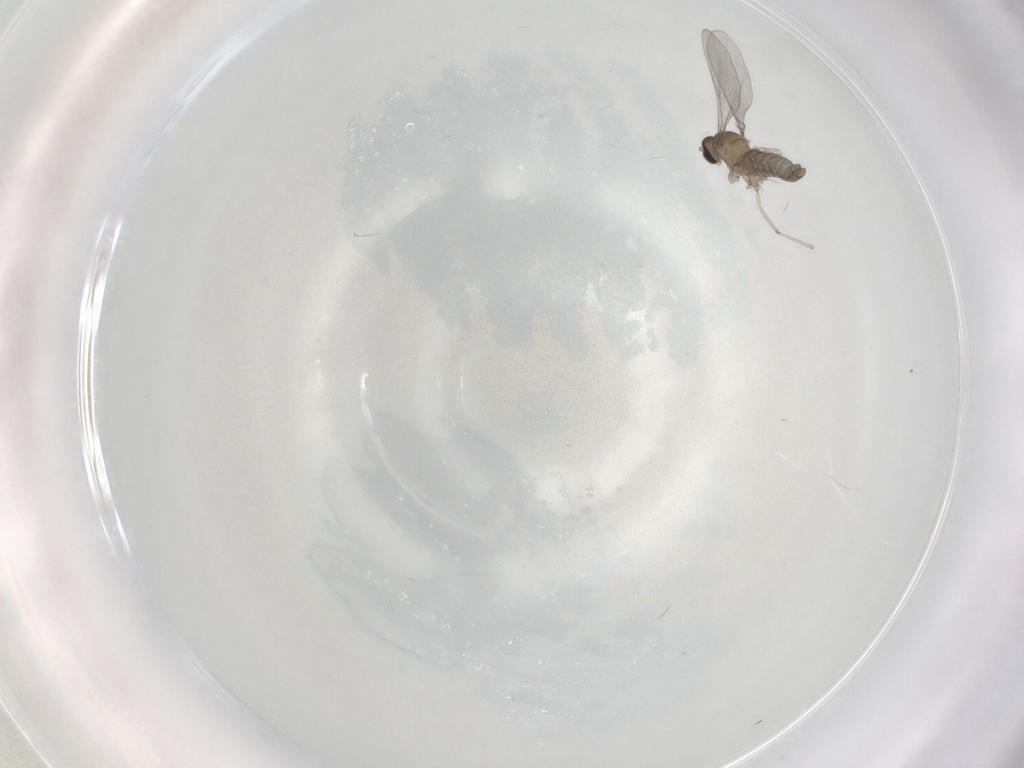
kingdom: Animalia
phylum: Arthropoda
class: Insecta
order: Diptera
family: Cecidomyiidae
